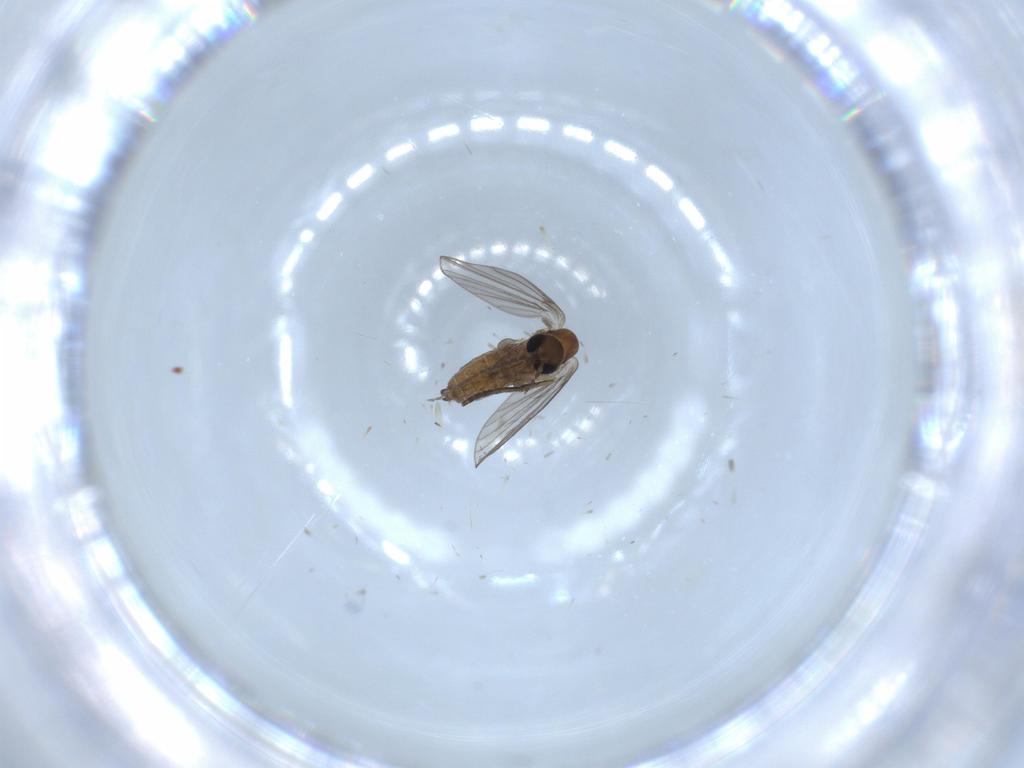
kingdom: Animalia
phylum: Arthropoda
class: Insecta
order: Diptera
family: Psychodidae
